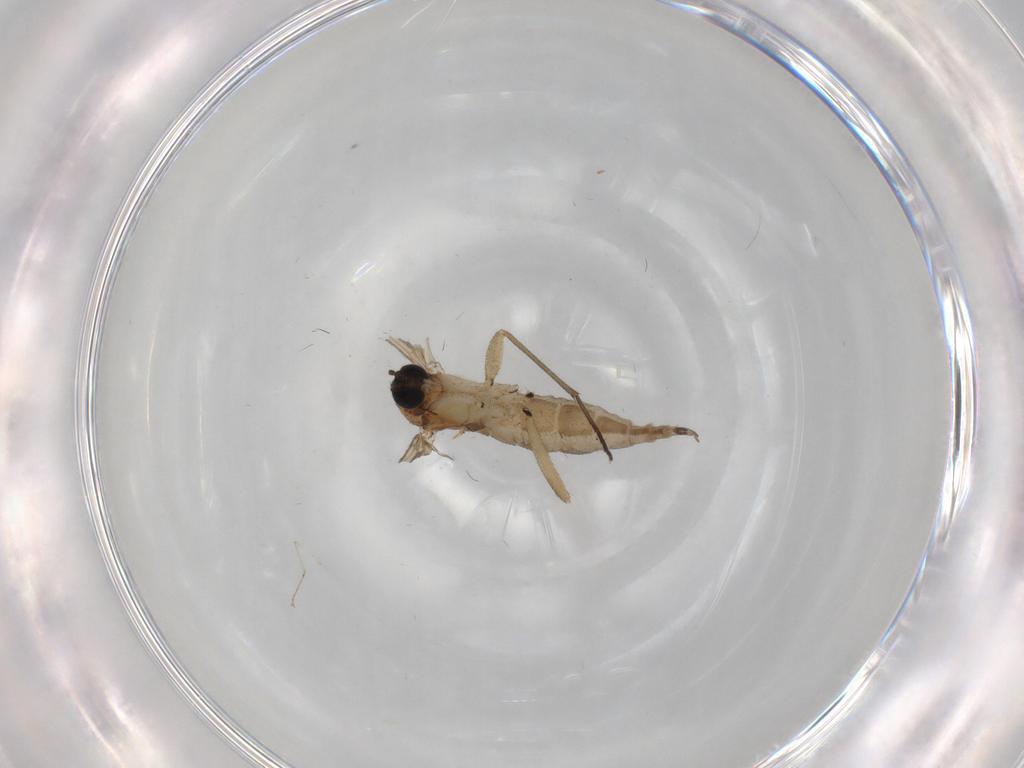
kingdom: Animalia
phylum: Arthropoda
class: Insecta
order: Diptera
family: Cecidomyiidae
